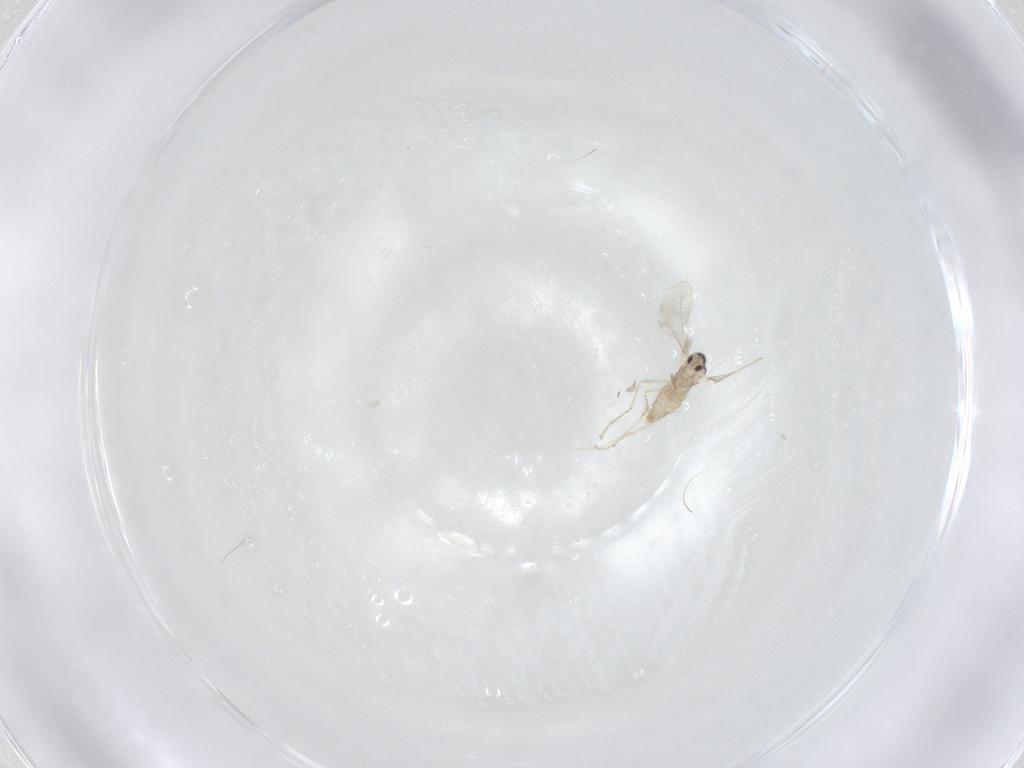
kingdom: Animalia
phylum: Arthropoda
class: Insecta
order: Diptera
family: Cecidomyiidae
